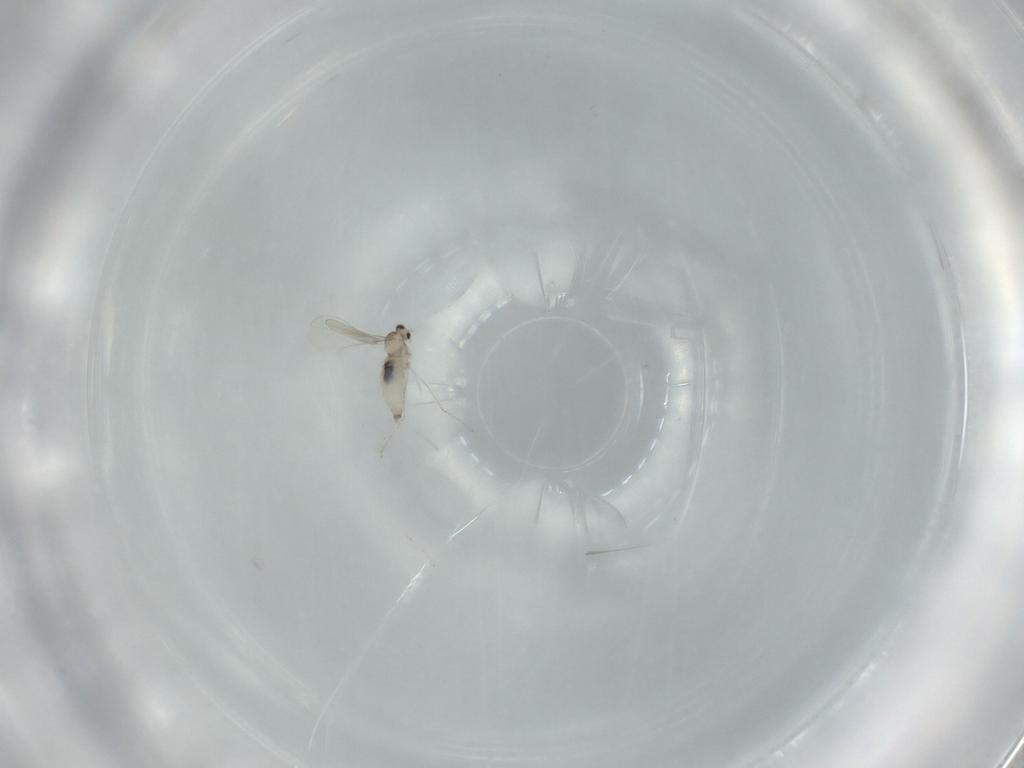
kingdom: Animalia
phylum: Arthropoda
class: Insecta
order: Diptera
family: Cecidomyiidae
